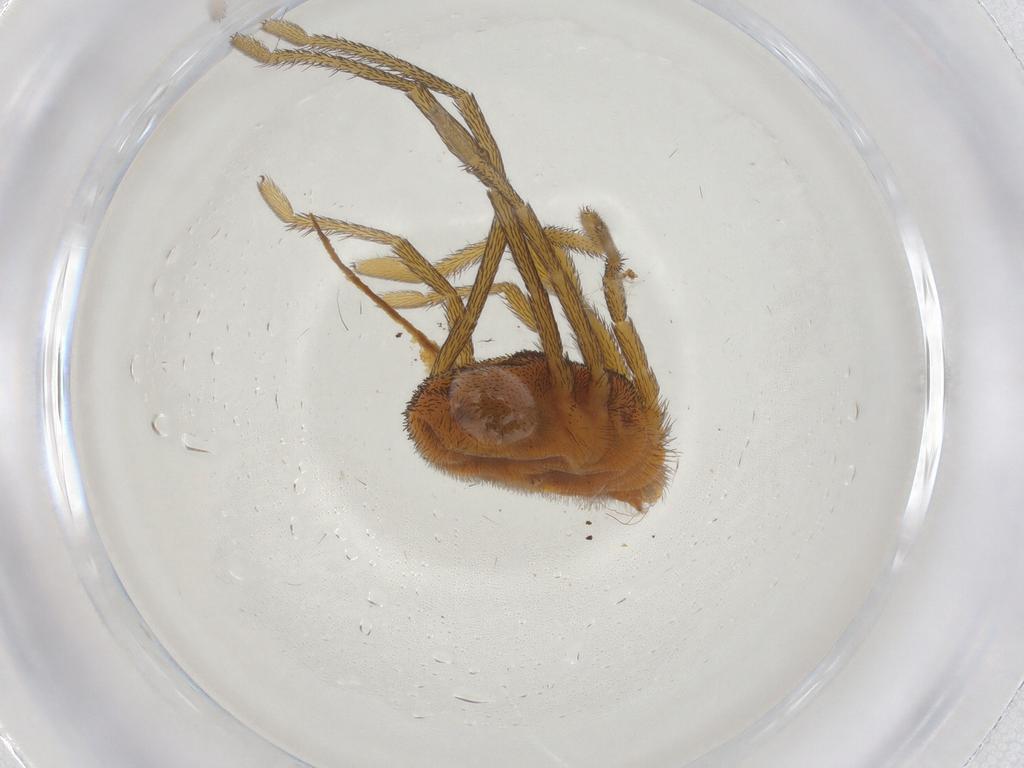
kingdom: Animalia
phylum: Arthropoda
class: Arachnida
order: Trombidiformes
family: Erythraeidae
